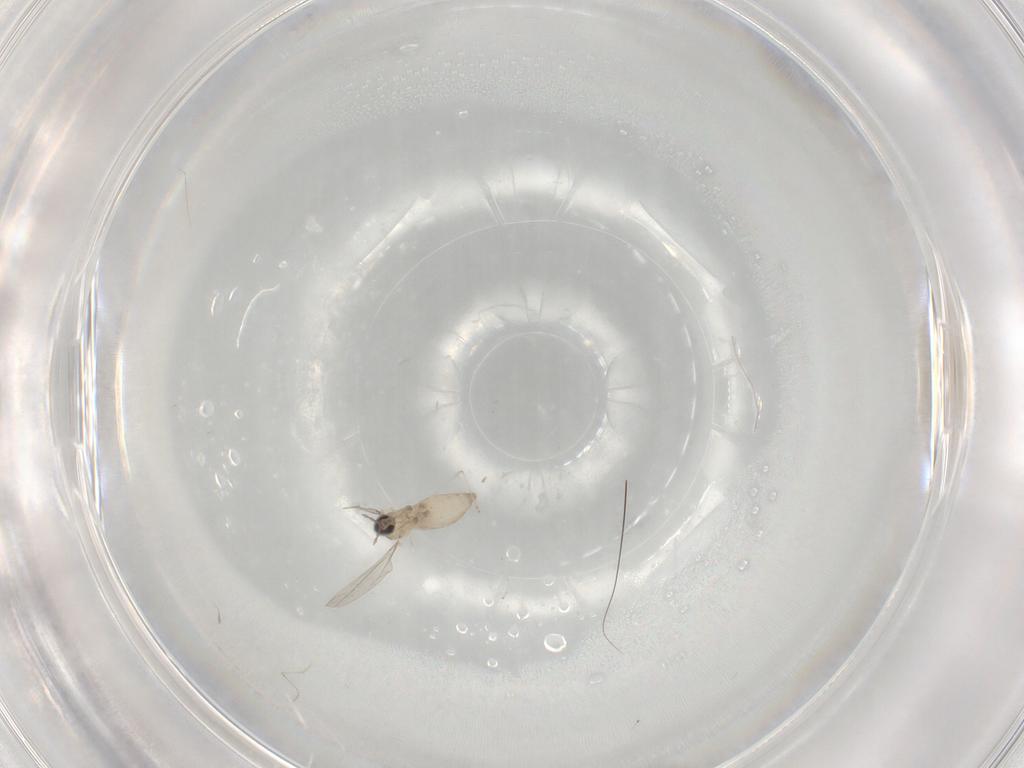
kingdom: Animalia
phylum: Arthropoda
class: Insecta
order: Diptera
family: Cecidomyiidae
